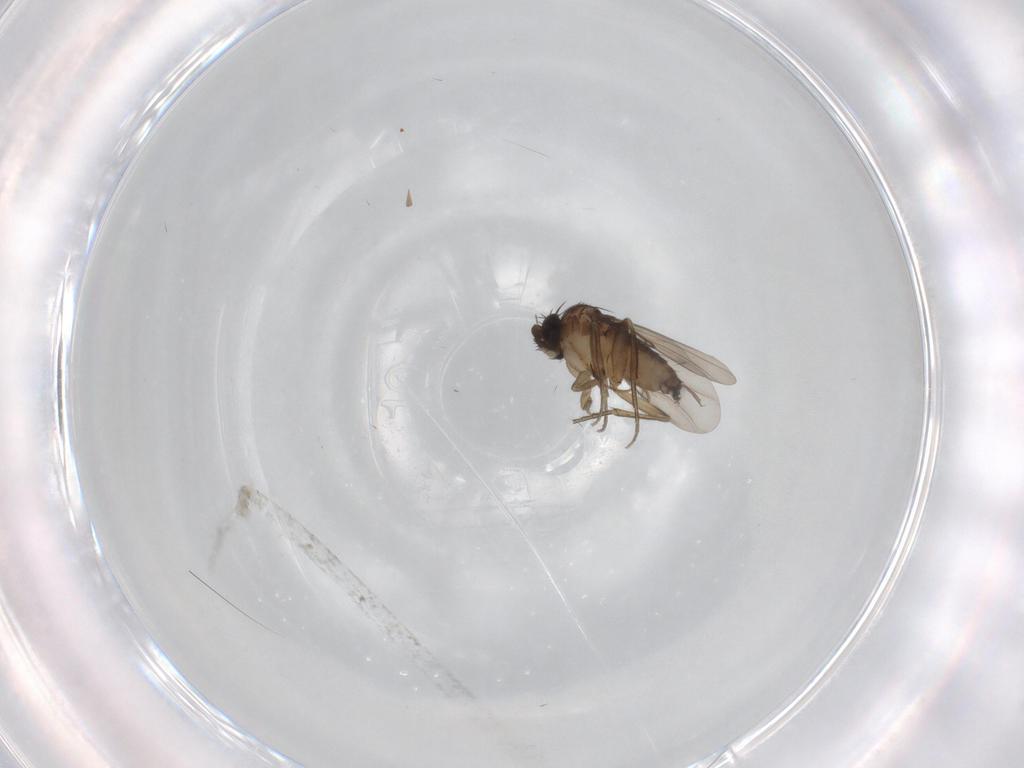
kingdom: Animalia
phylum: Arthropoda
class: Insecta
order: Diptera
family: Phoridae
